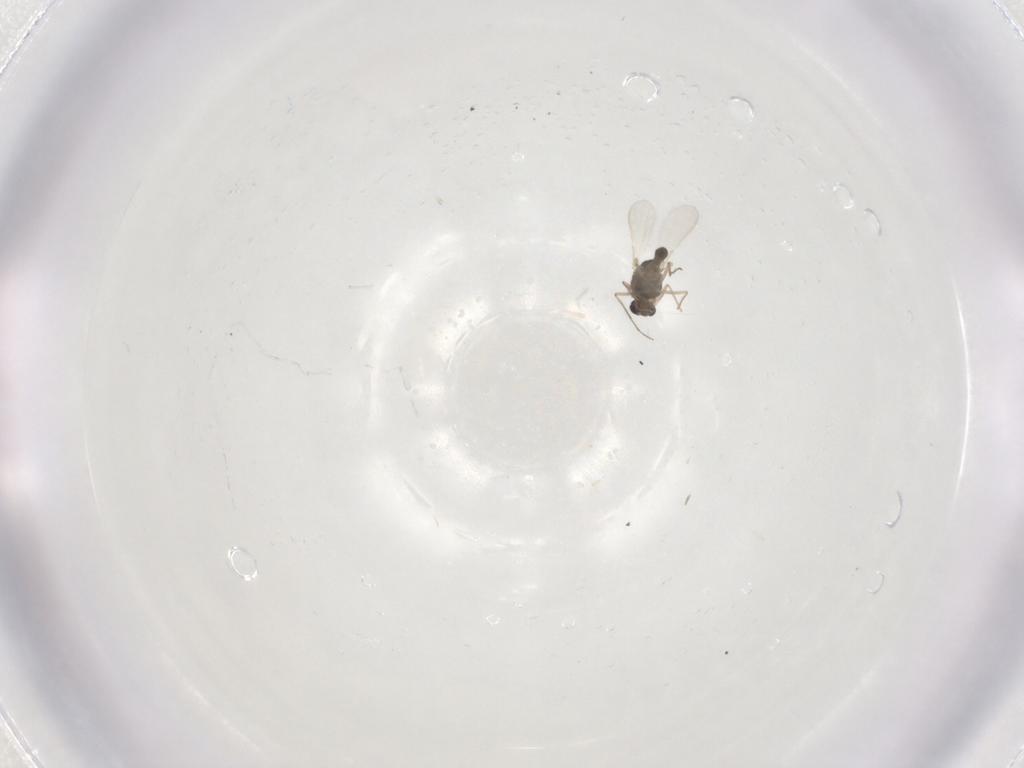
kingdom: Animalia
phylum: Arthropoda
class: Insecta
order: Diptera
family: Chironomidae
